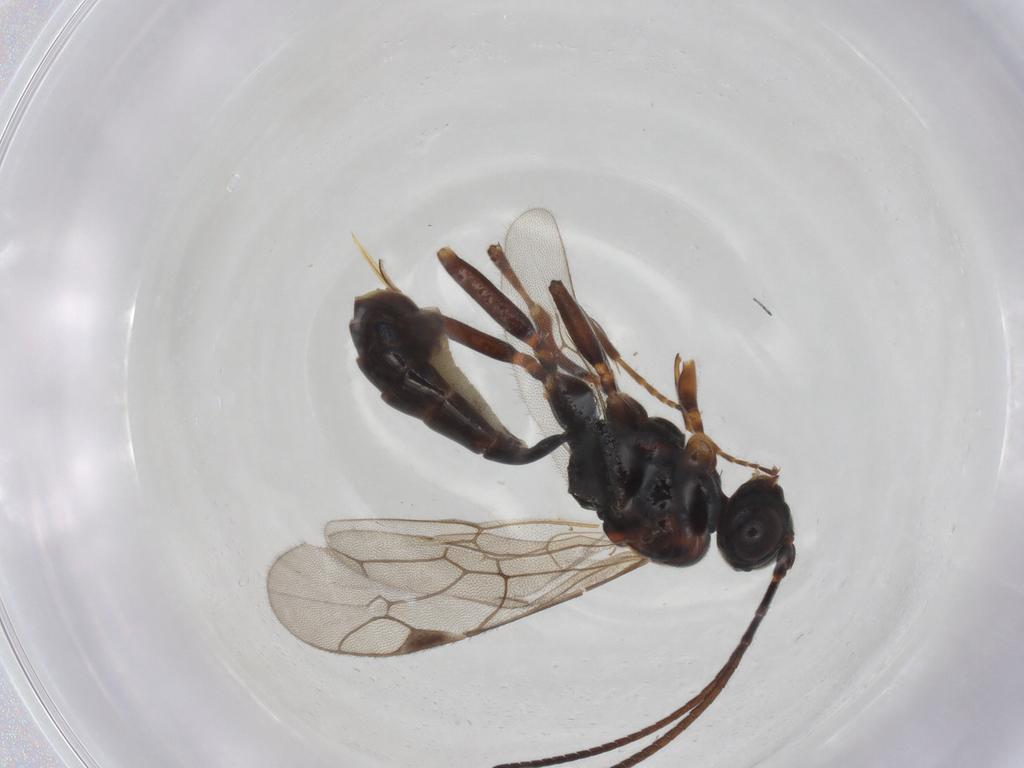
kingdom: Animalia
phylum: Arthropoda
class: Insecta
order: Hymenoptera
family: Ichneumonidae
